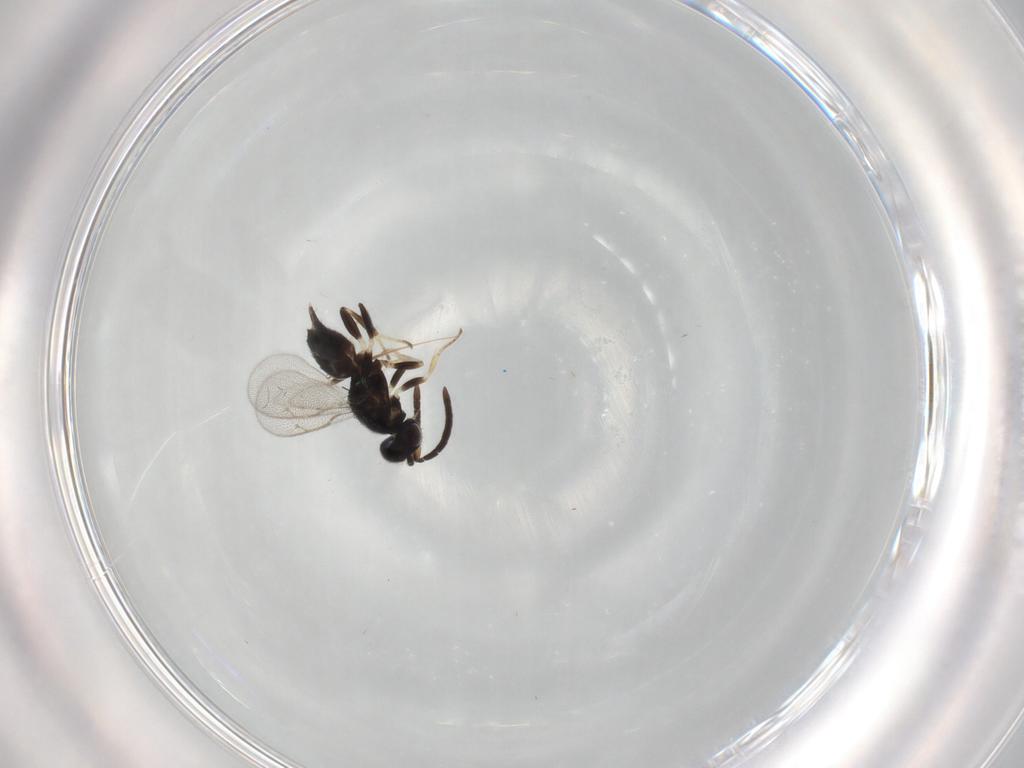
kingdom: Animalia
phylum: Arthropoda
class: Insecta
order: Hymenoptera
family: Eupelmidae
